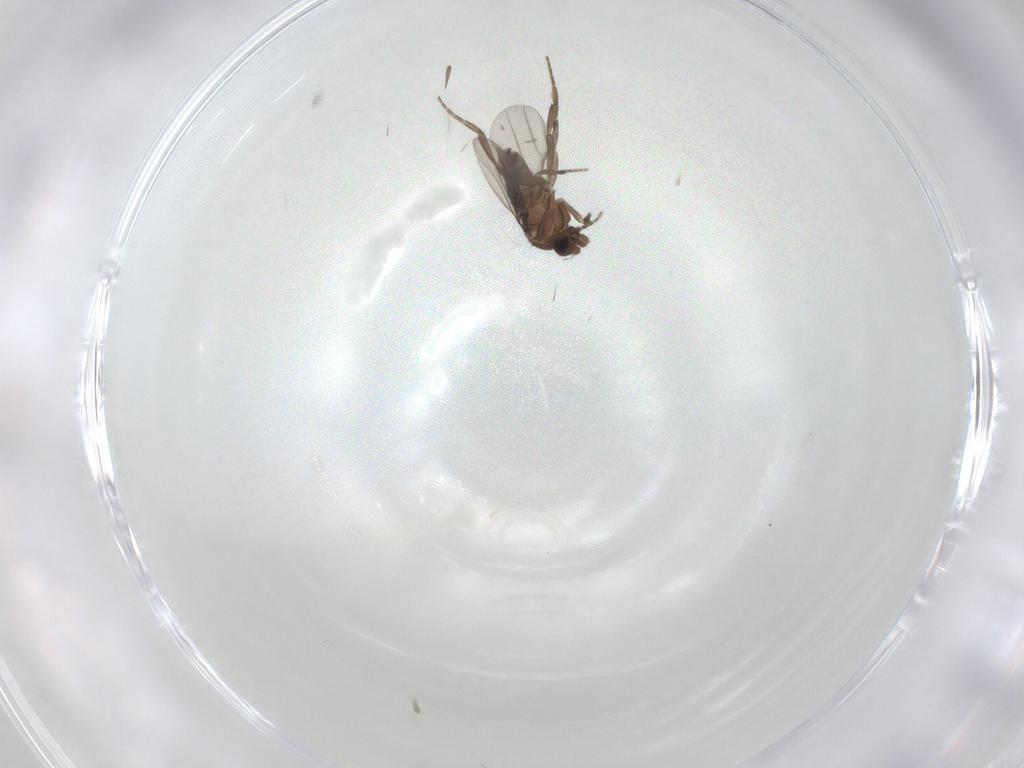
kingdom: Animalia
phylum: Arthropoda
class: Insecta
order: Diptera
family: Phoridae
